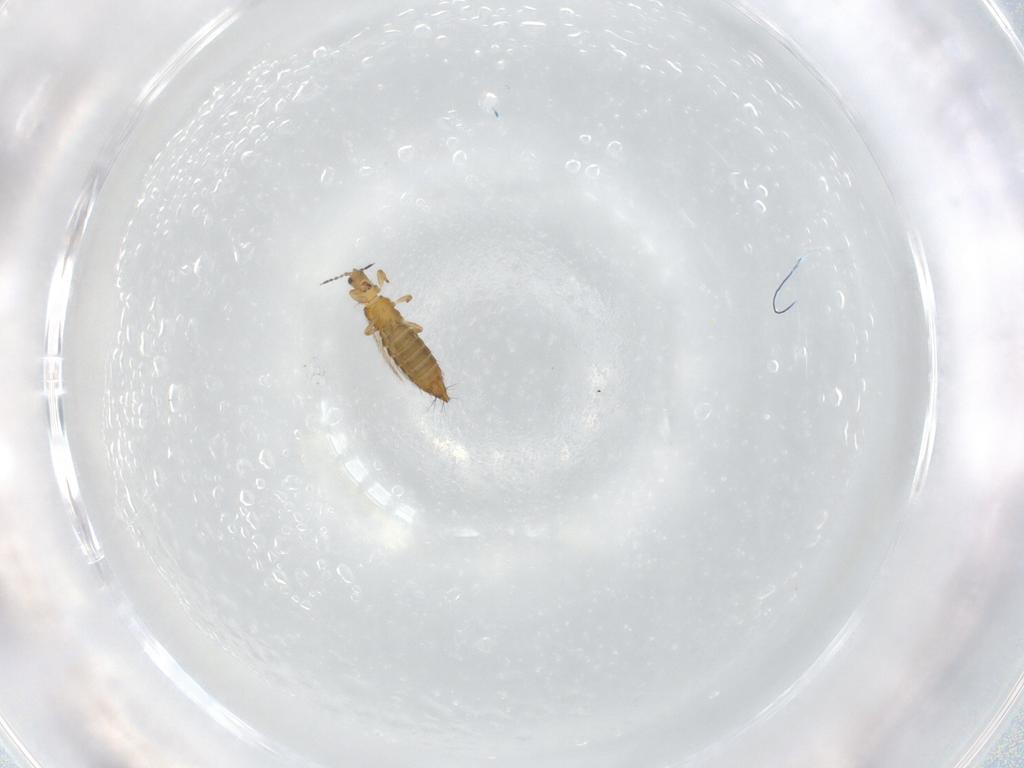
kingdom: Animalia
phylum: Arthropoda
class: Insecta
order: Thysanoptera
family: Thripidae
